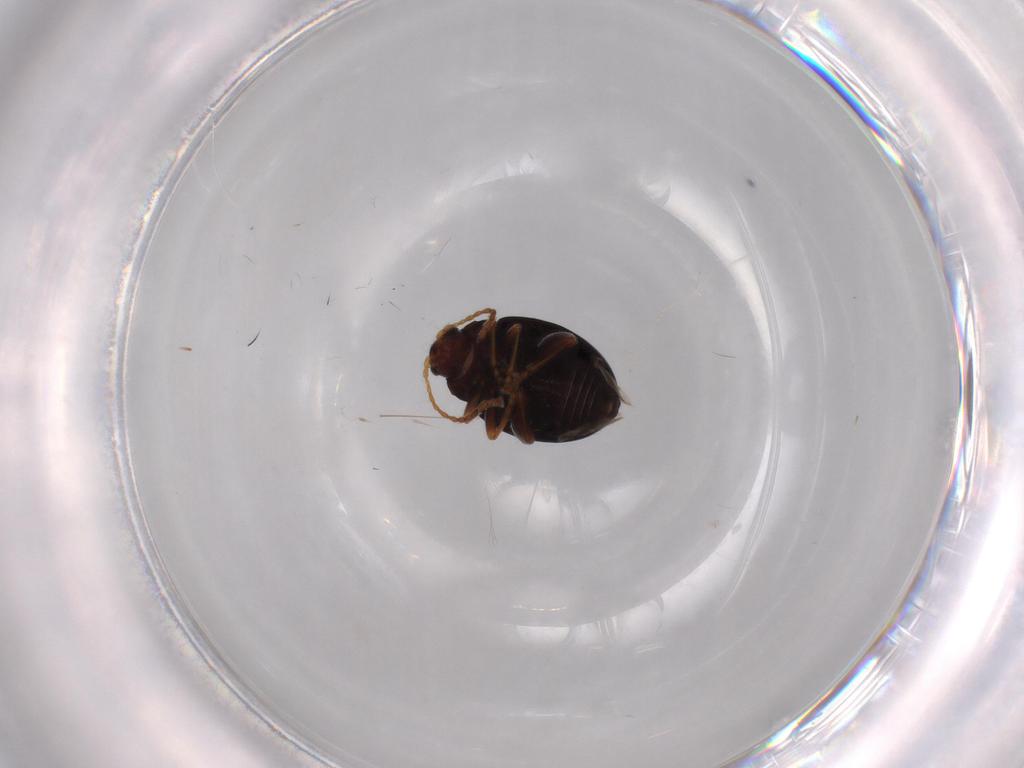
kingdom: Animalia
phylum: Arthropoda
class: Insecta
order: Coleoptera
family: Chrysomelidae
